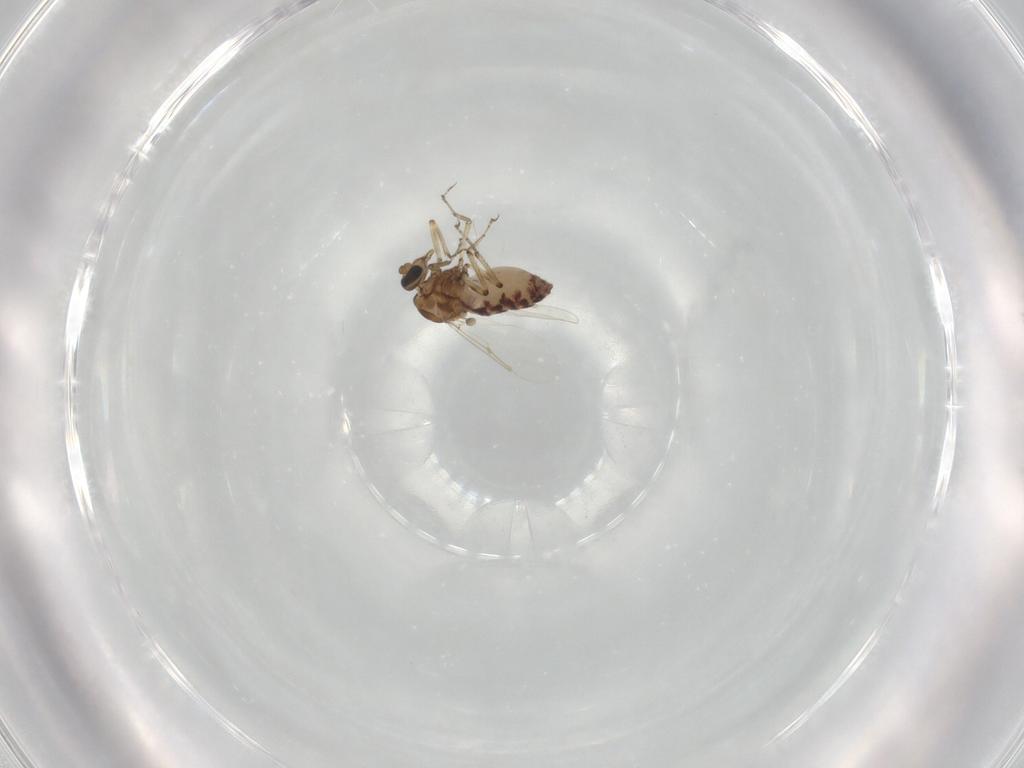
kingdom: Animalia
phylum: Arthropoda
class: Insecta
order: Diptera
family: Ceratopogonidae
